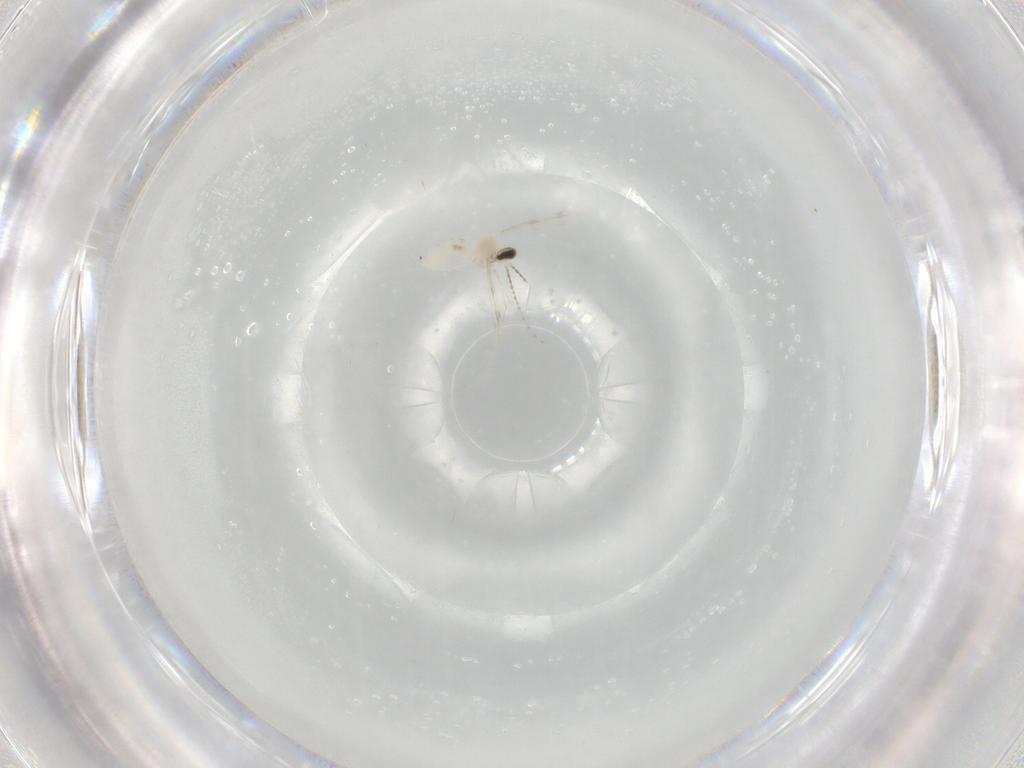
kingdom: Animalia
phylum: Arthropoda
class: Insecta
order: Diptera
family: Cecidomyiidae
